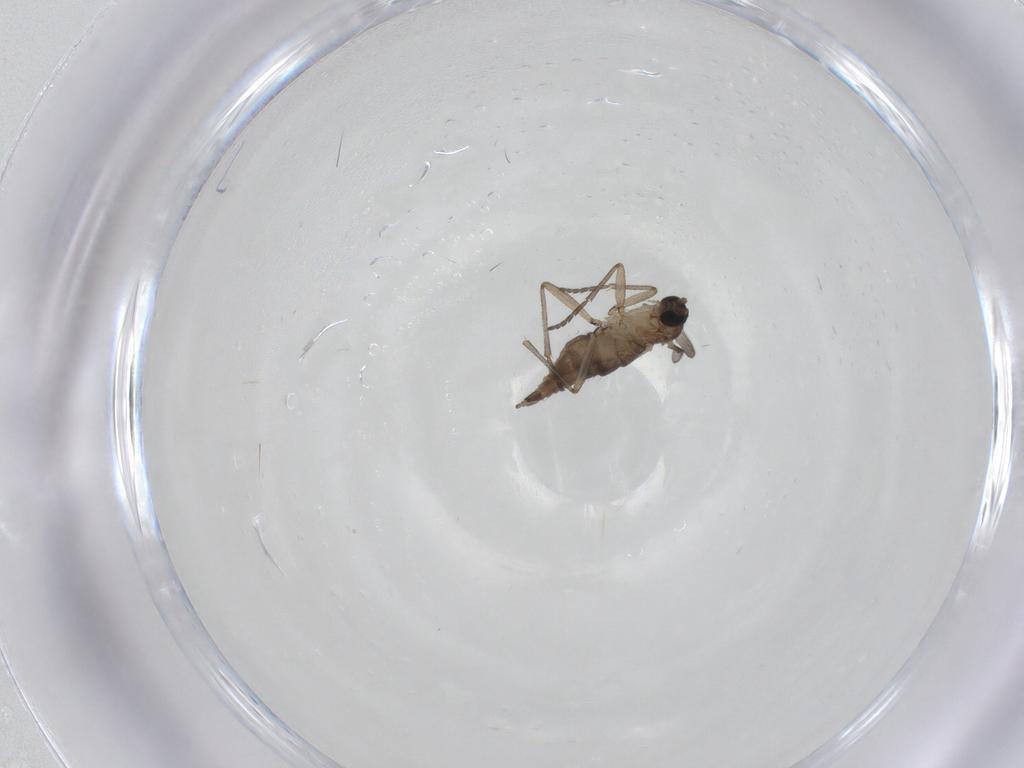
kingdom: Animalia
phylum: Arthropoda
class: Insecta
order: Diptera
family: Sciaridae
